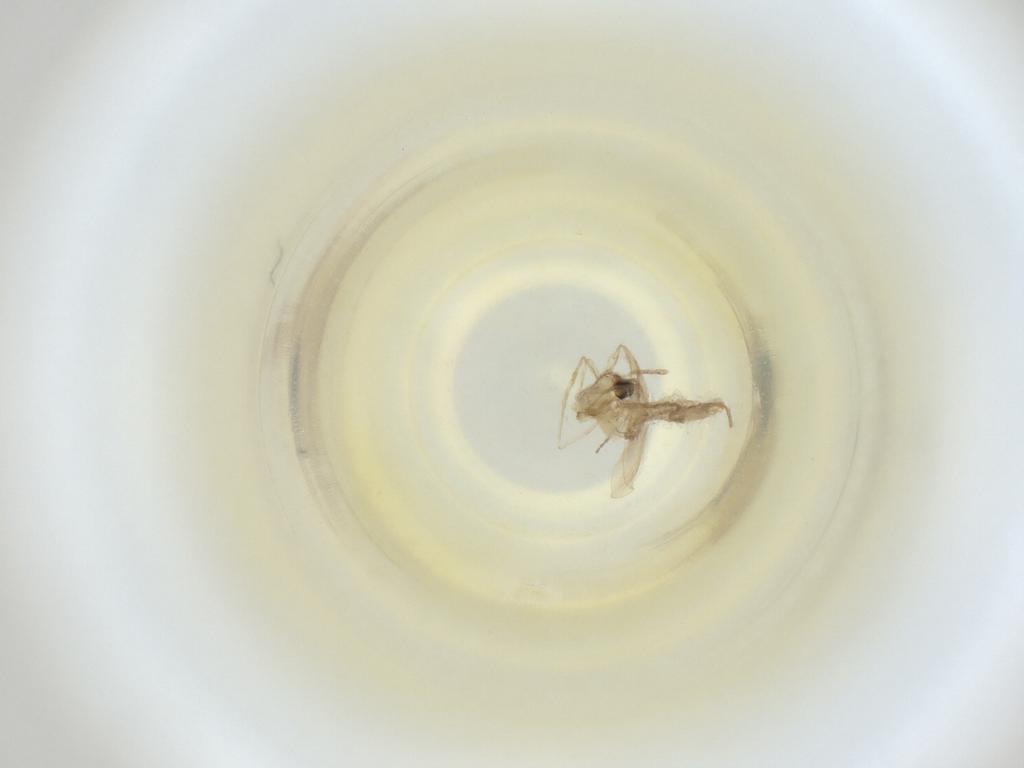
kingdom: Animalia
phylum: Arthropoda
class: Insecta
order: Diptera
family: Cecidomyiidae
